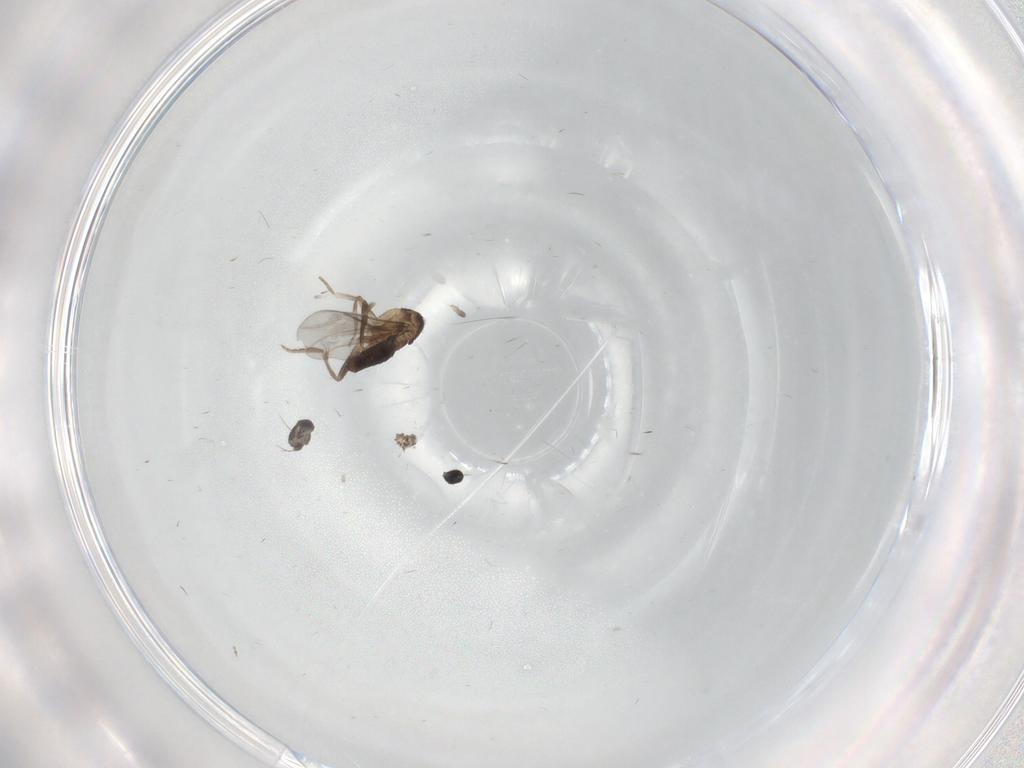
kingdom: Animalia
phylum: Arthropoda
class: Insecta
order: Diptera
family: Cecidomyiidae
